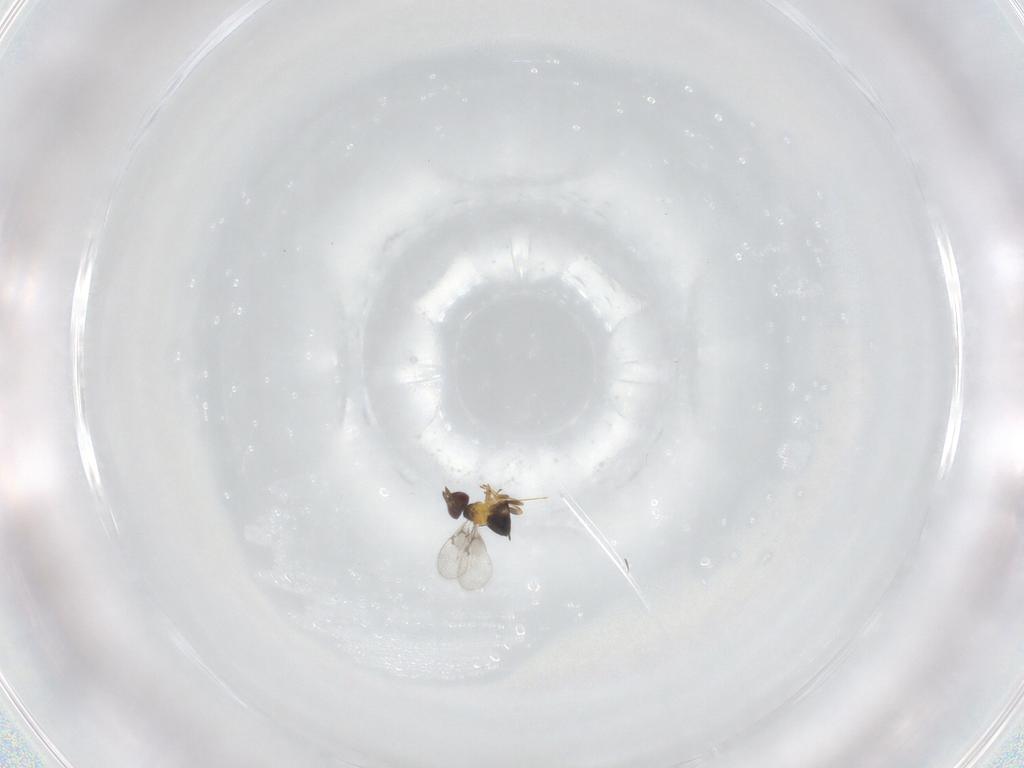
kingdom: Animalia
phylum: Arthropoda
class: Insecta
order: Hymenoptera
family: Trichogrammatidae
